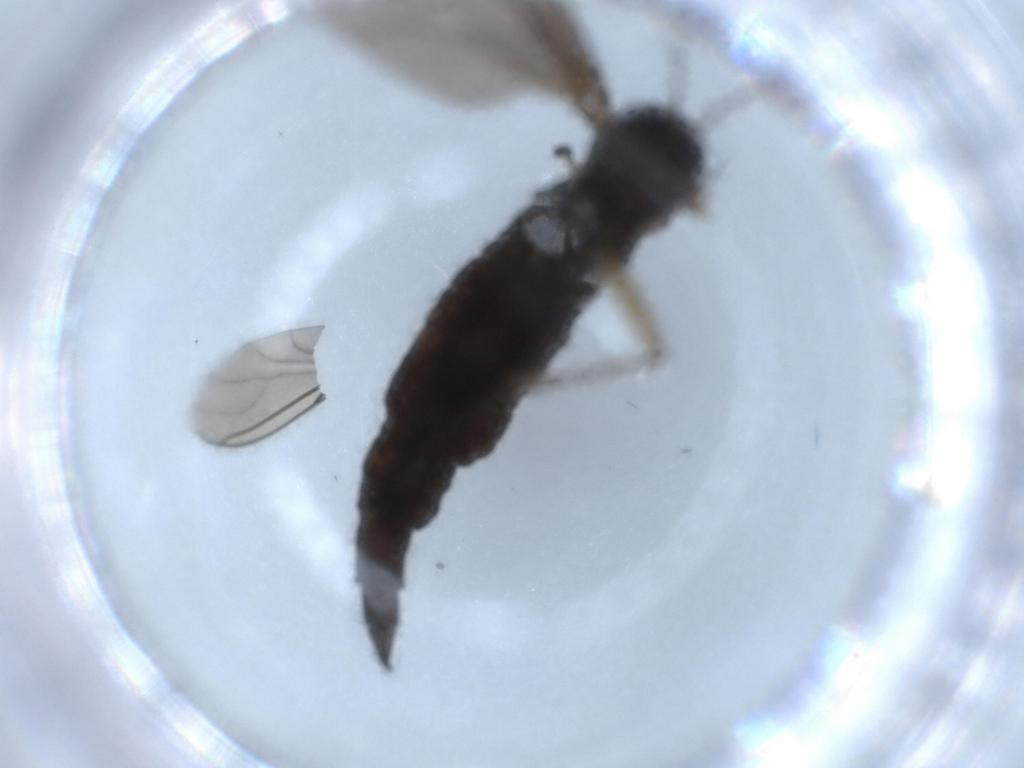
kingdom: Animalia
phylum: Arthropoda
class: Insecta
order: Diptera
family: Sciaridae
